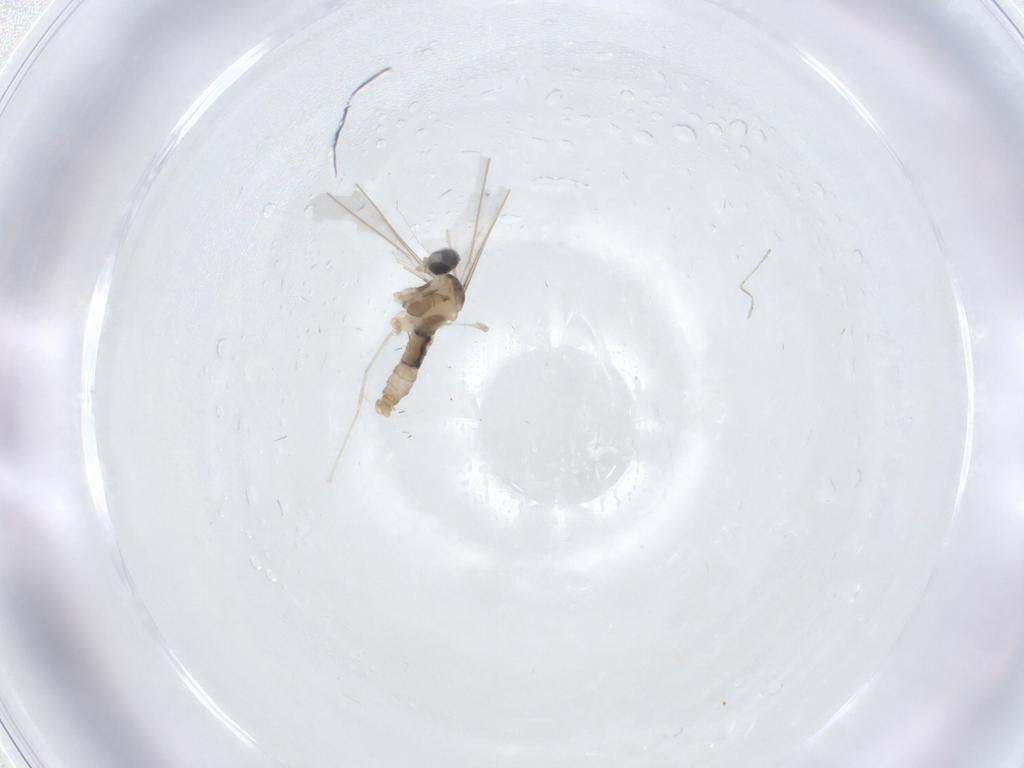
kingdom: Animalia
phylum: Arthropoda
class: Insecta
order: Diptera
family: Cecidomyiidae
